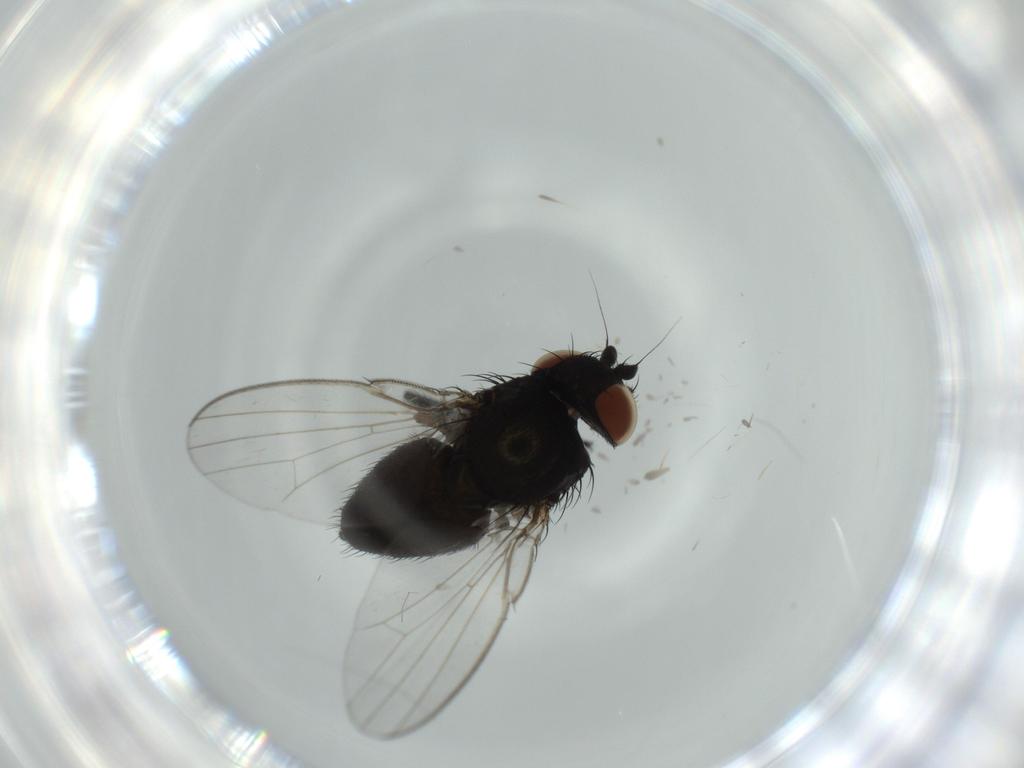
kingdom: Animalia
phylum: Arthropoda
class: Insecta
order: Diptera
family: Milichiidae
